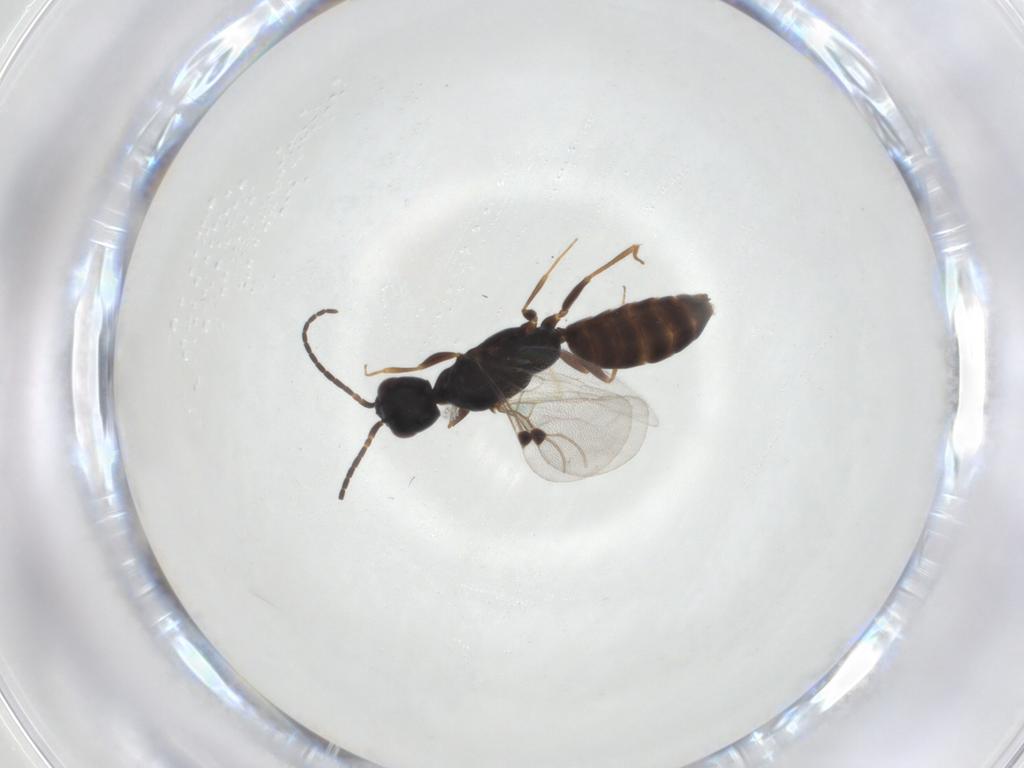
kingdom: Animalia
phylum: Arthropoda
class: Insecta
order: Hymenoptera
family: Bethylidae
